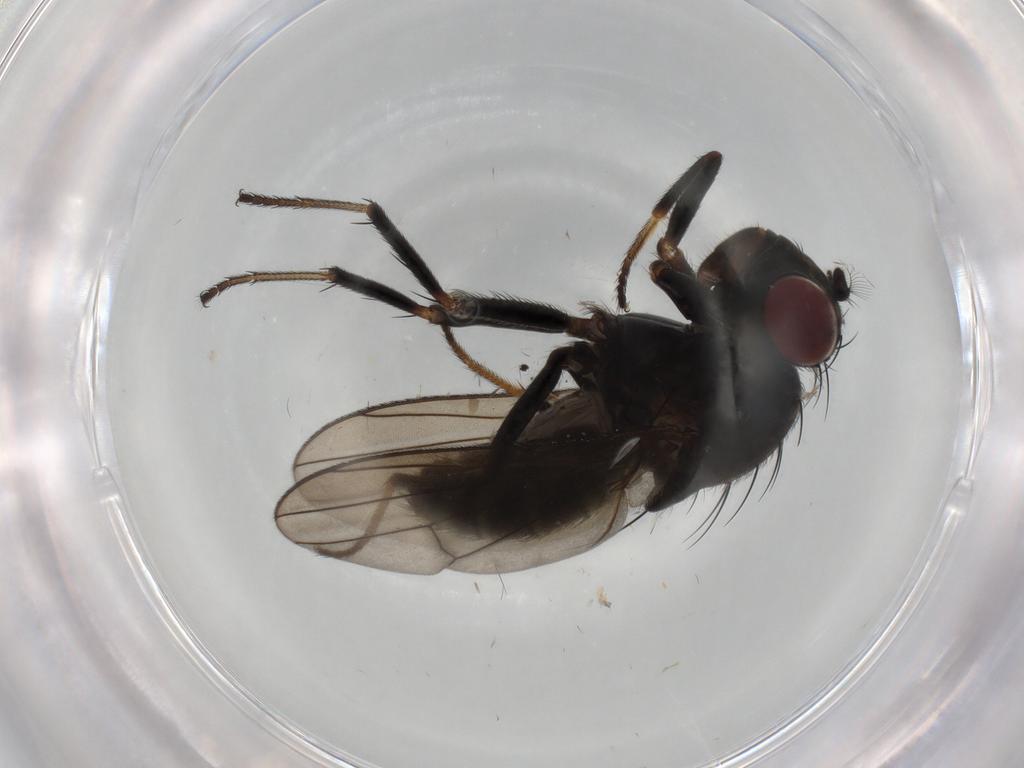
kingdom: Animalia
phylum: Arthropoda
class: Insecta
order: Diptera
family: Ephydridae
